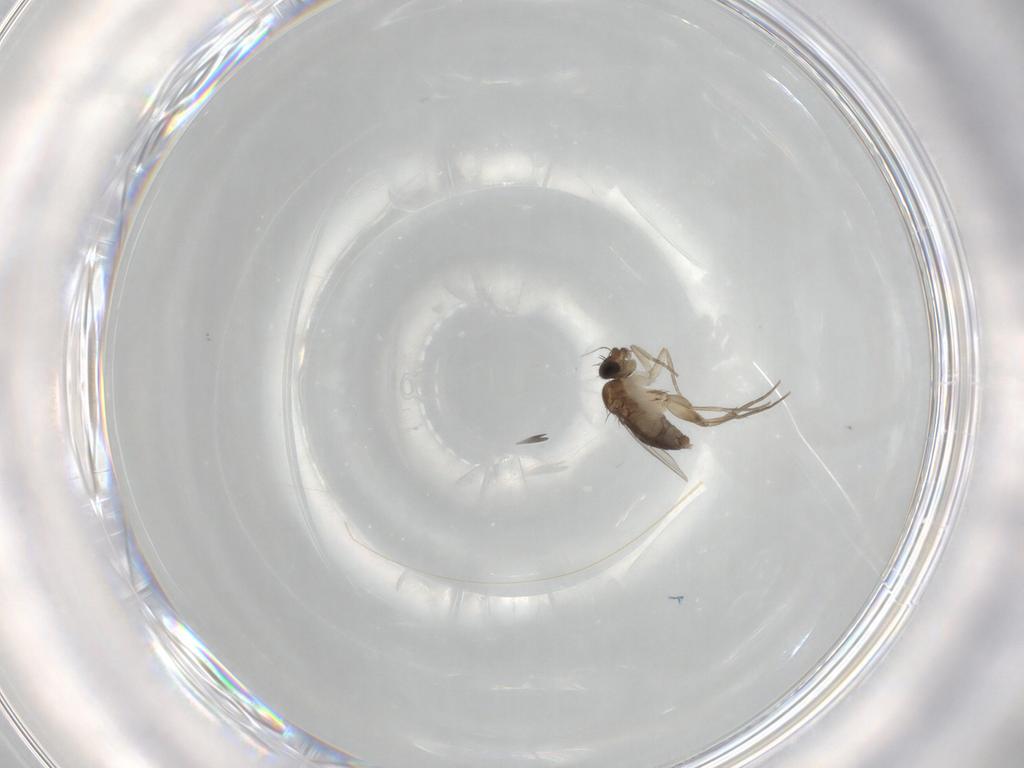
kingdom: Animalia
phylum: Arthropoda
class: Insecta
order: Diptera
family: Phoridae
